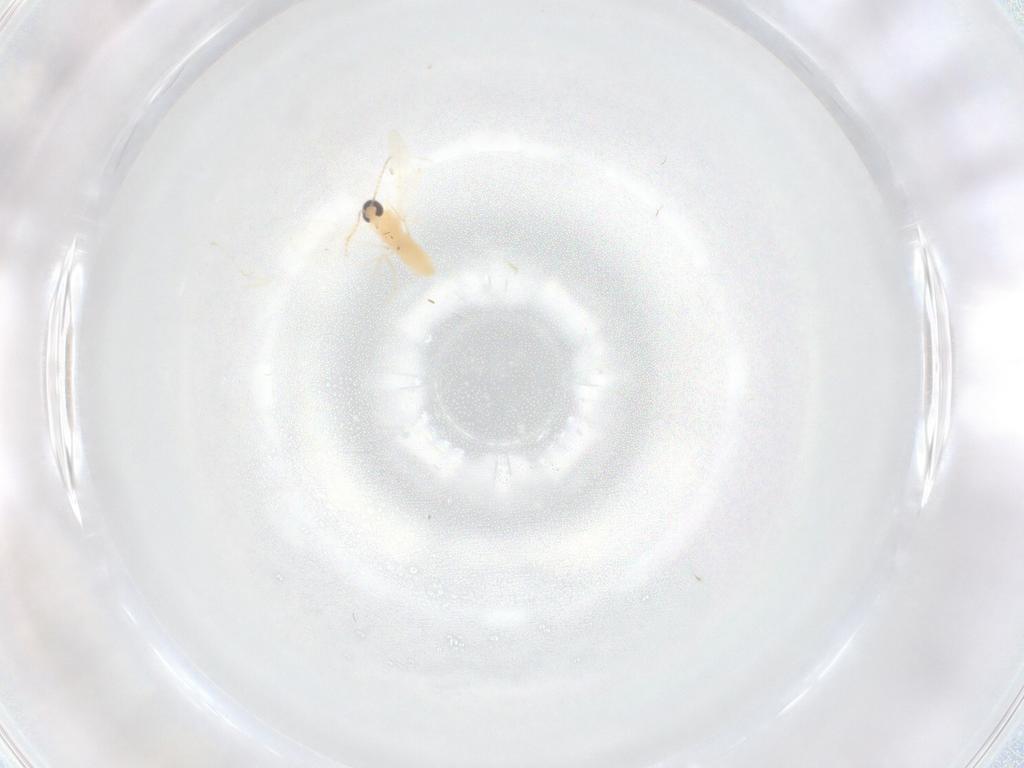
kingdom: Animalia
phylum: Arthropoda
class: Insecta
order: Diptera
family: Cecidomyiidae
